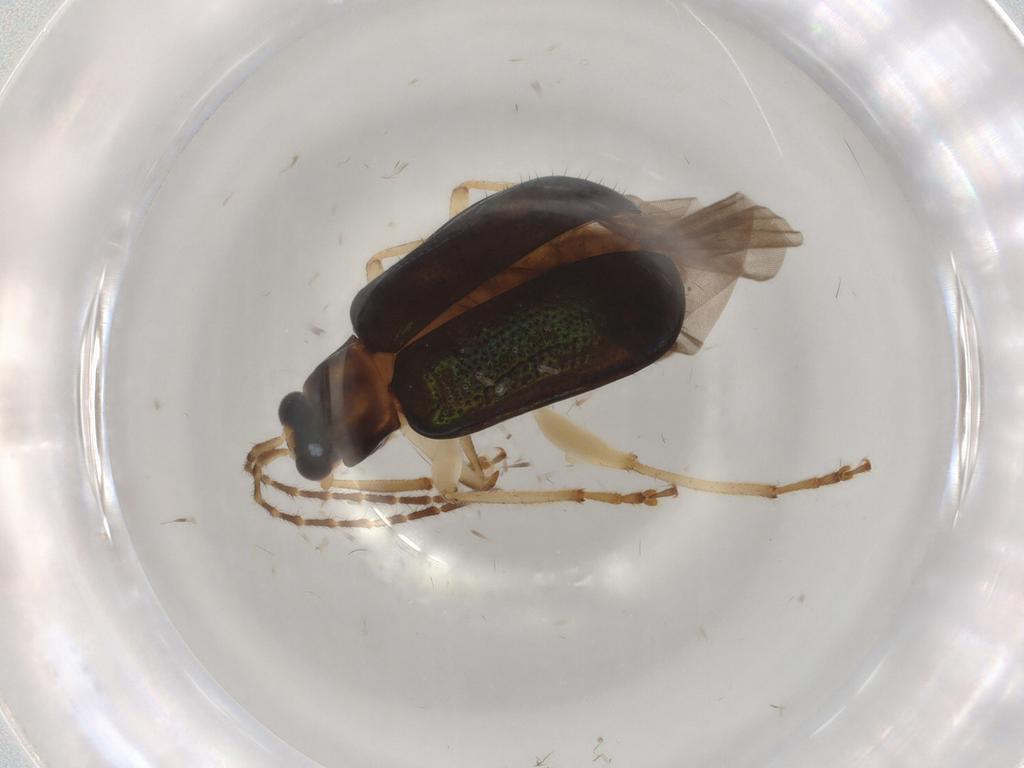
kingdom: Animalia
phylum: Arthropoda
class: Insecta
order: Coleoptera
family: Chrysomelidae
